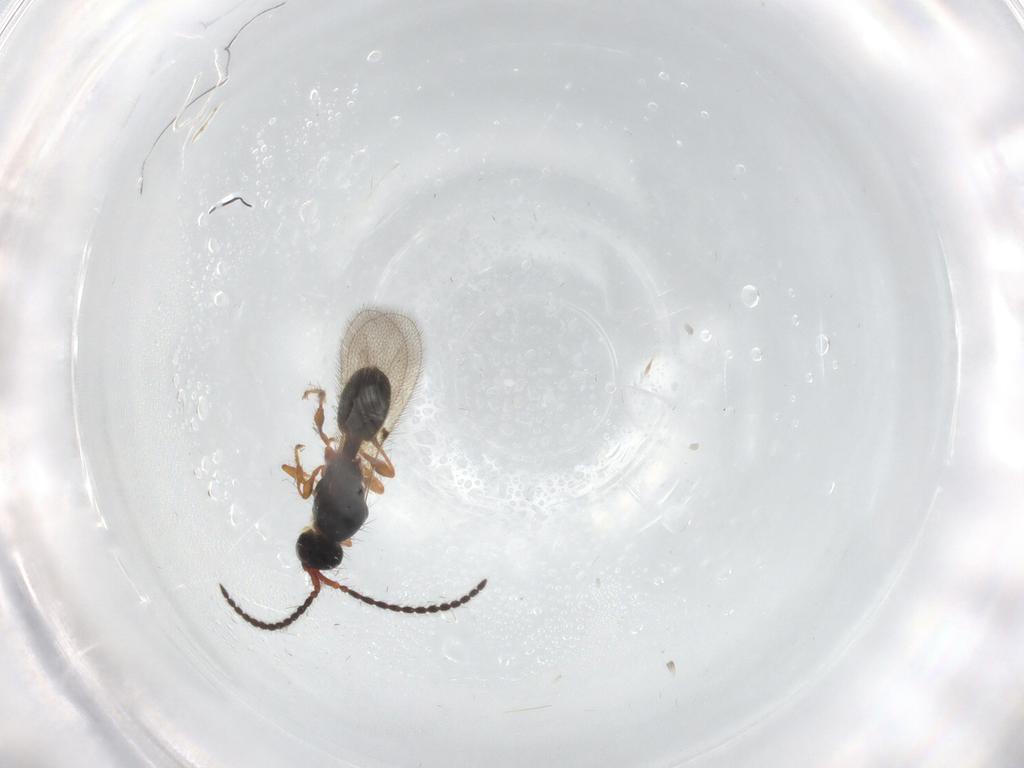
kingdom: Animalia
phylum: Arthropoda
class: Insecta
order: Hymenoptera
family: Diapriidae
